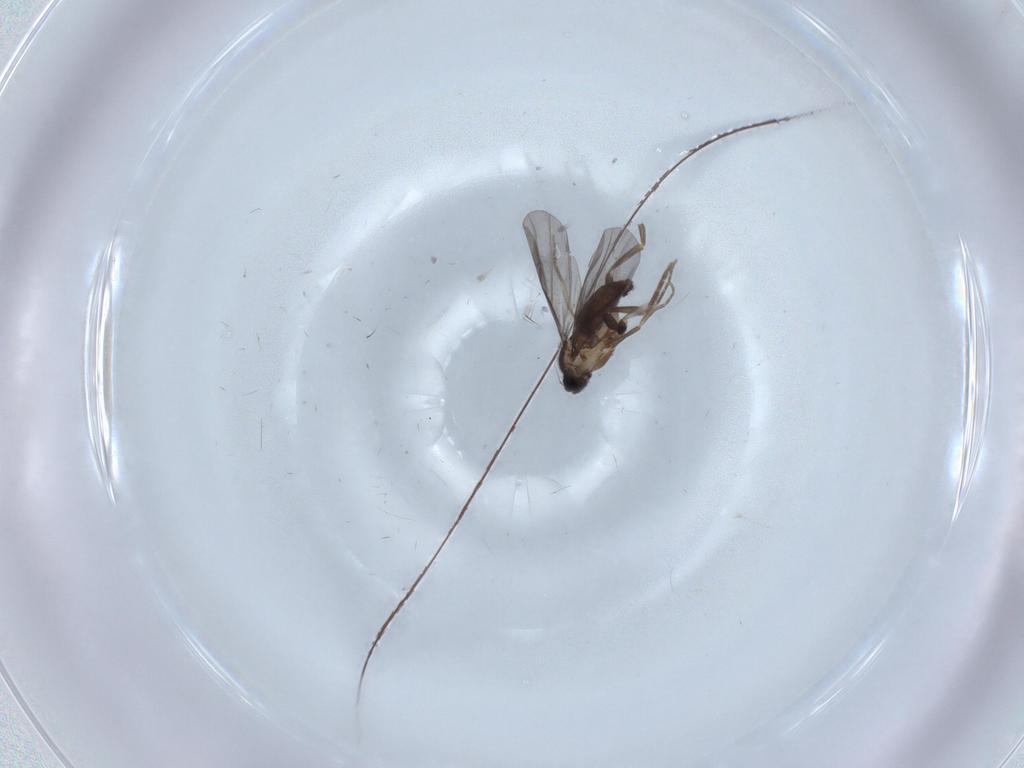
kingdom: Animalia
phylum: Arthropoda
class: Insecta
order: Diptera
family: Phoridae
